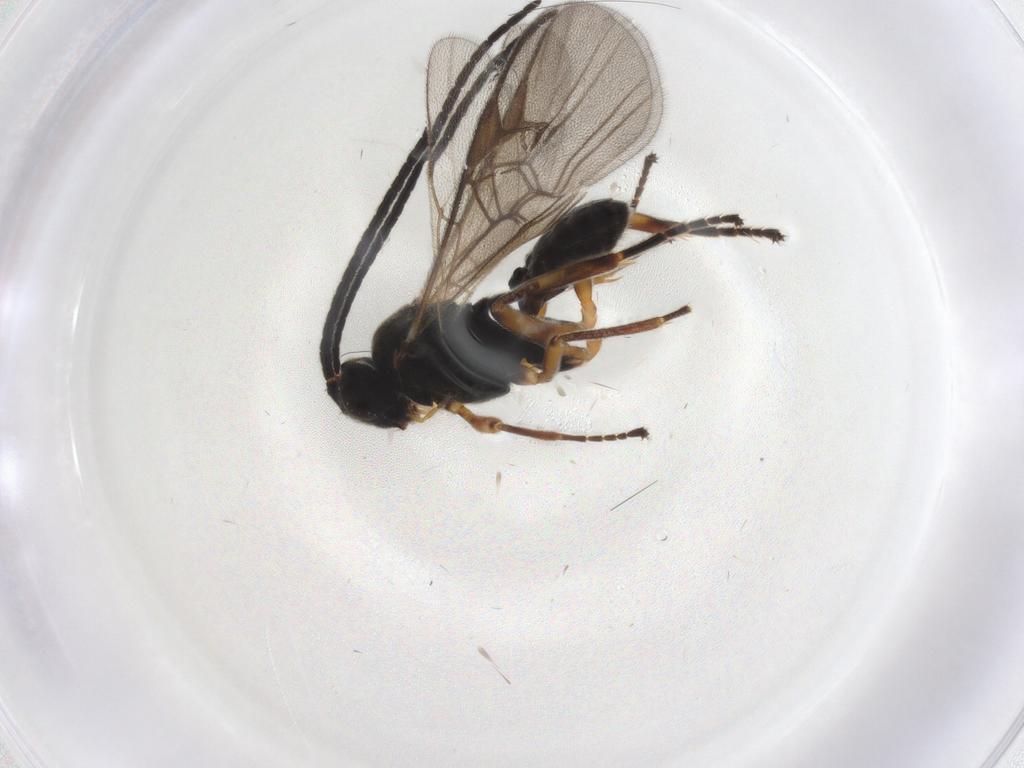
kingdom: Animalia
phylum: Arthropoda
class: Insecta
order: Hymenoptera
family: Braconidae
